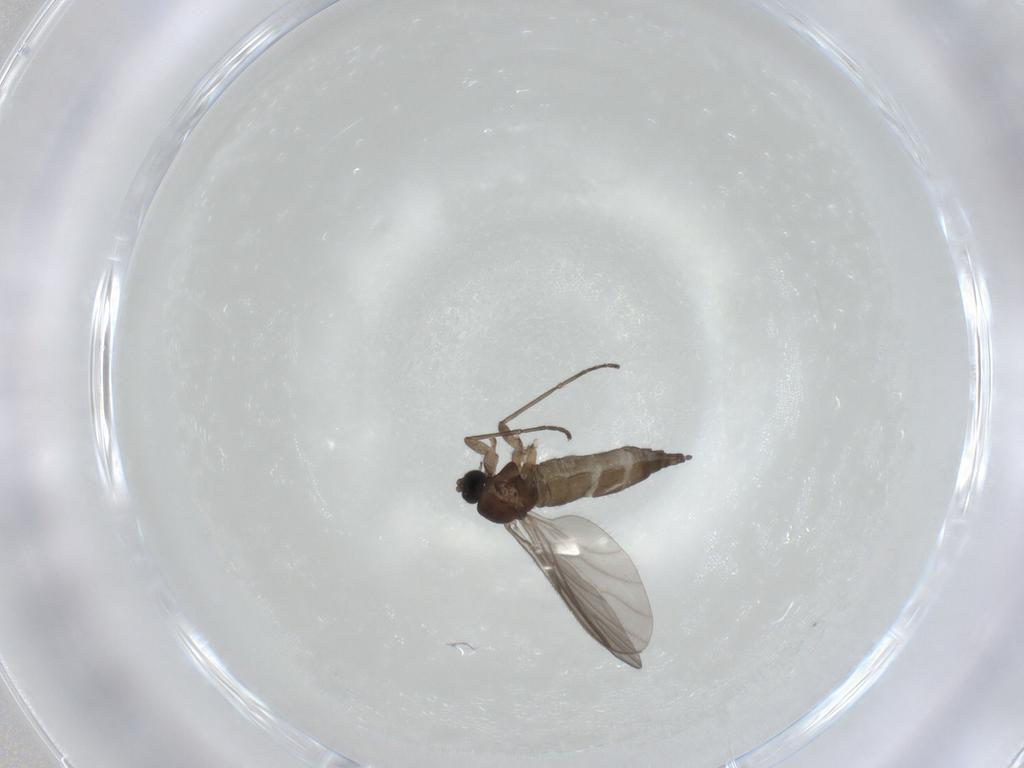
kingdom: Animalia
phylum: Arthropoda
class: Insecta
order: Diptera
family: Sciaridae
